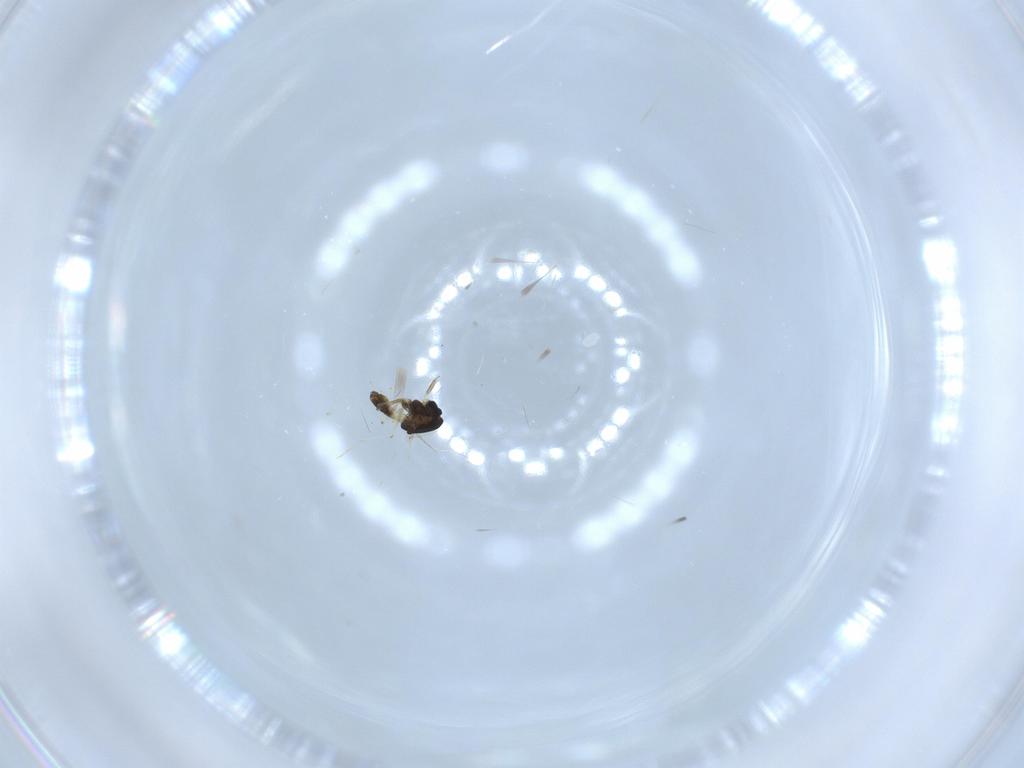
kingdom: Animalia
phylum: Arthropoda
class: Insecta
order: Diptera
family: Chironomidae
